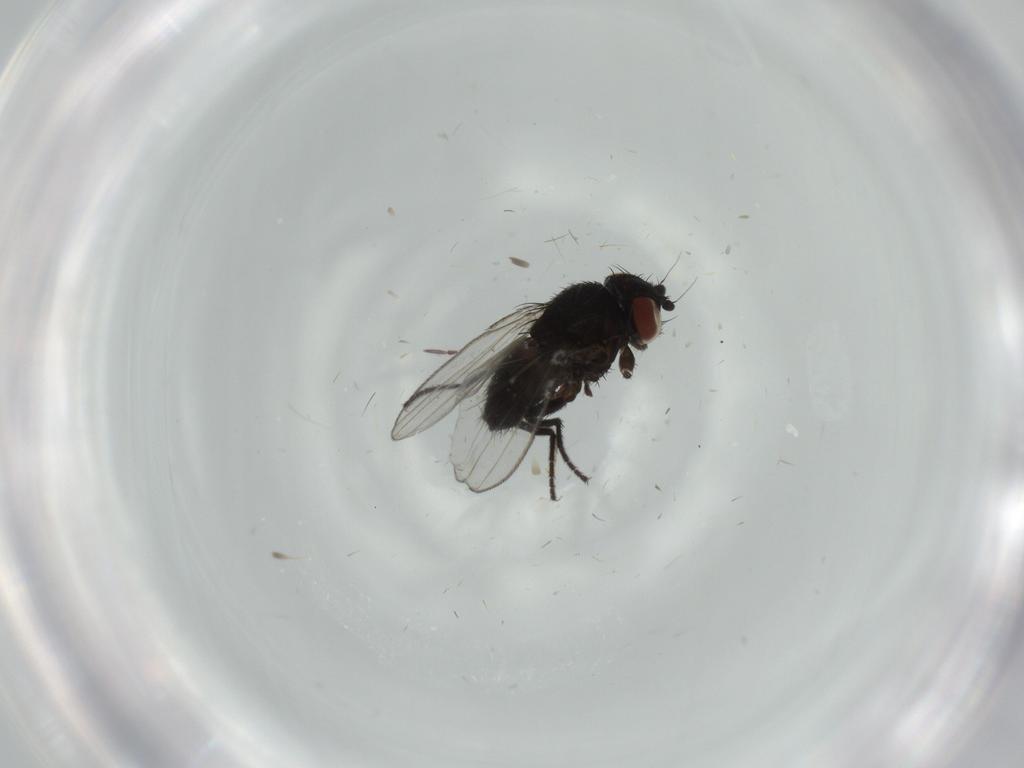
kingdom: Animalia
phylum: Arthropoda
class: Insecta
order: Diptera
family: Milichiidae
